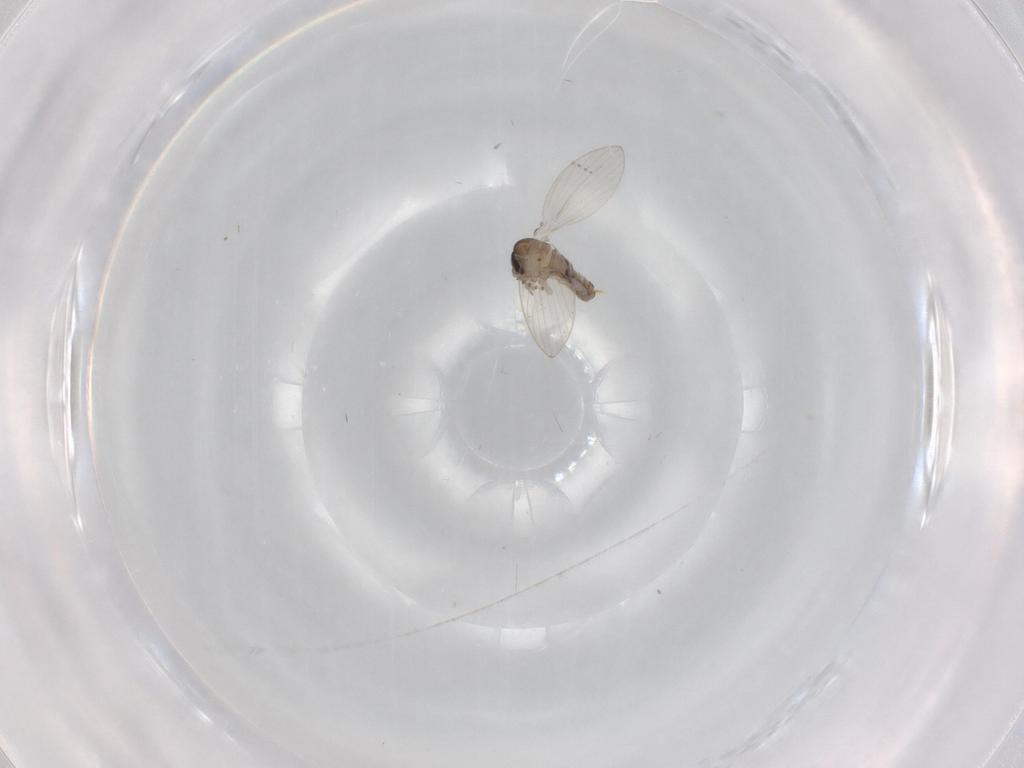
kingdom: Animalia
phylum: Arthropoda
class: Insecta
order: Diptera
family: Psychodidae
